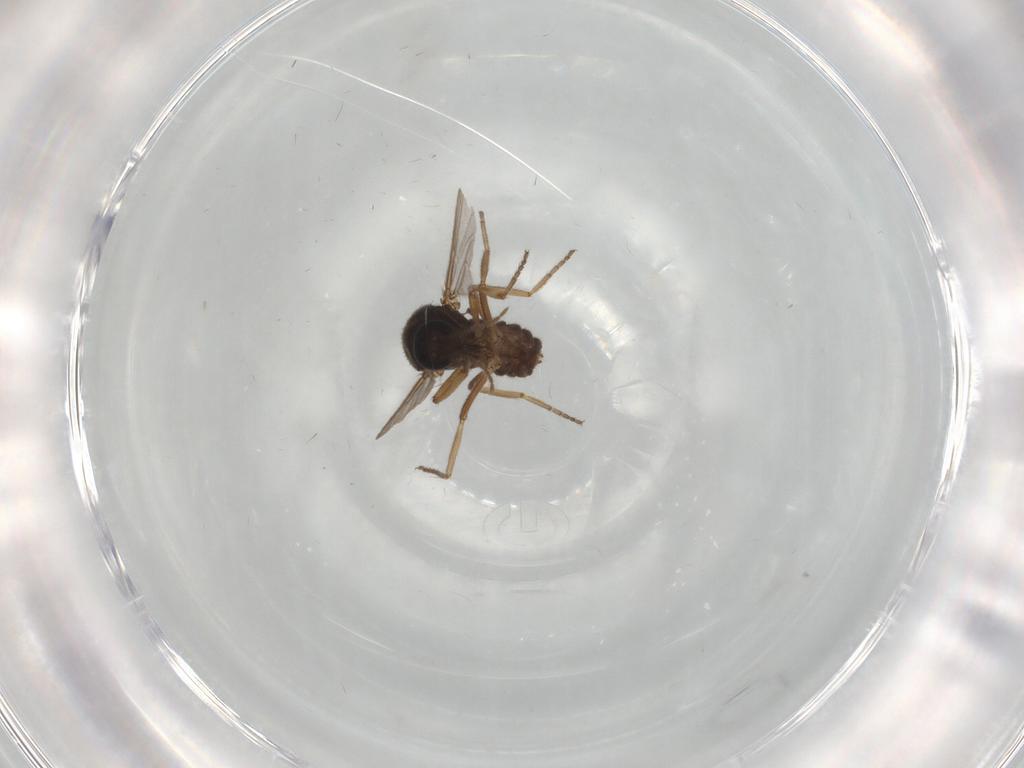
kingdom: Animalia
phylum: Arthropoda
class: Insecta
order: Diptera
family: Ceratopogonidae
